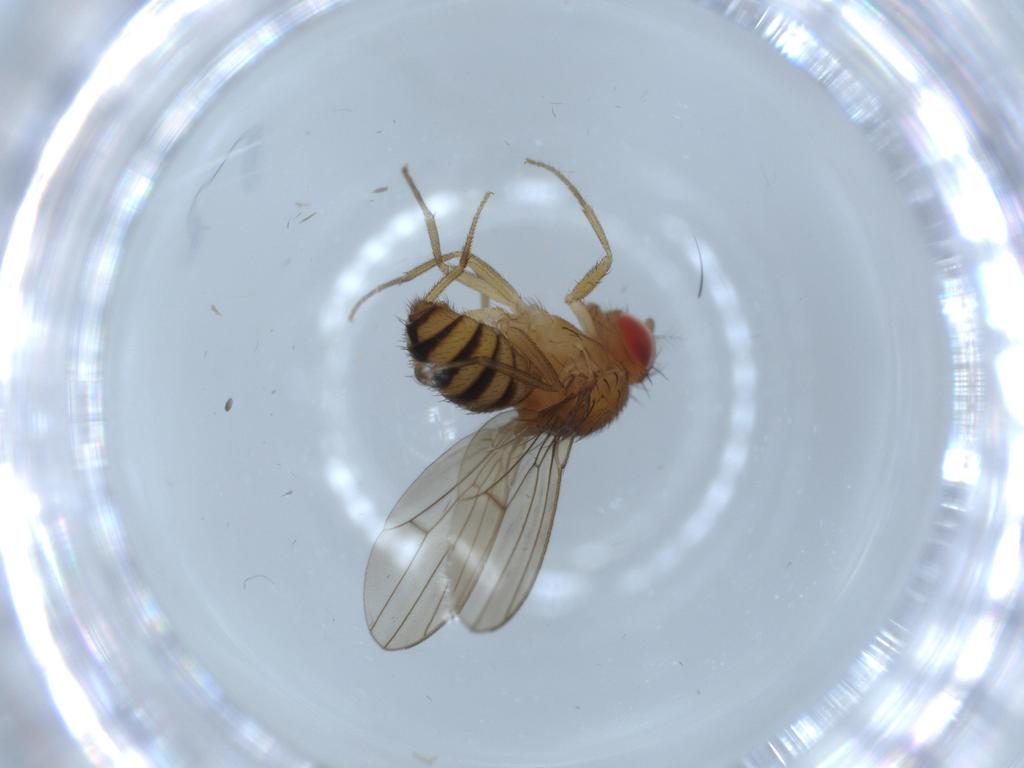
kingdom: Animalia
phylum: Arthropoda
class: Insecta
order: Diptera
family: Drosophilidae
